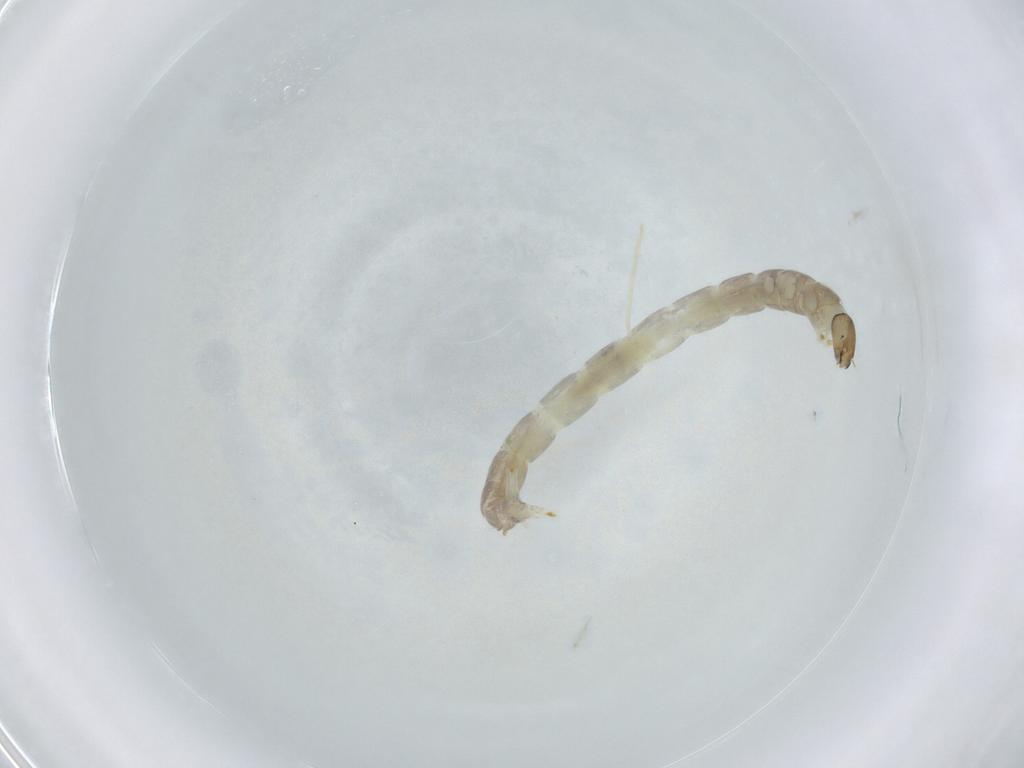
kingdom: Animalia
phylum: Arthropoda
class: Insecta
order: Diptera
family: Chironomidae
